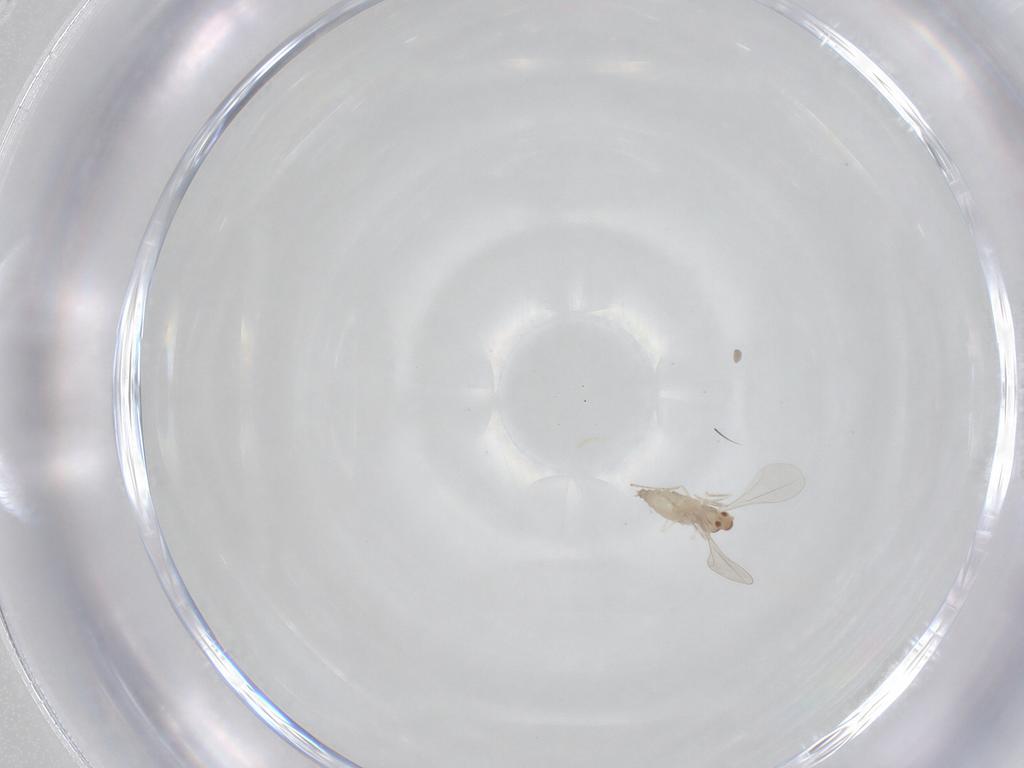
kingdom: Animalia
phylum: Arthropoda
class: Insecta
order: Diptera
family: Cecidomyiidae
